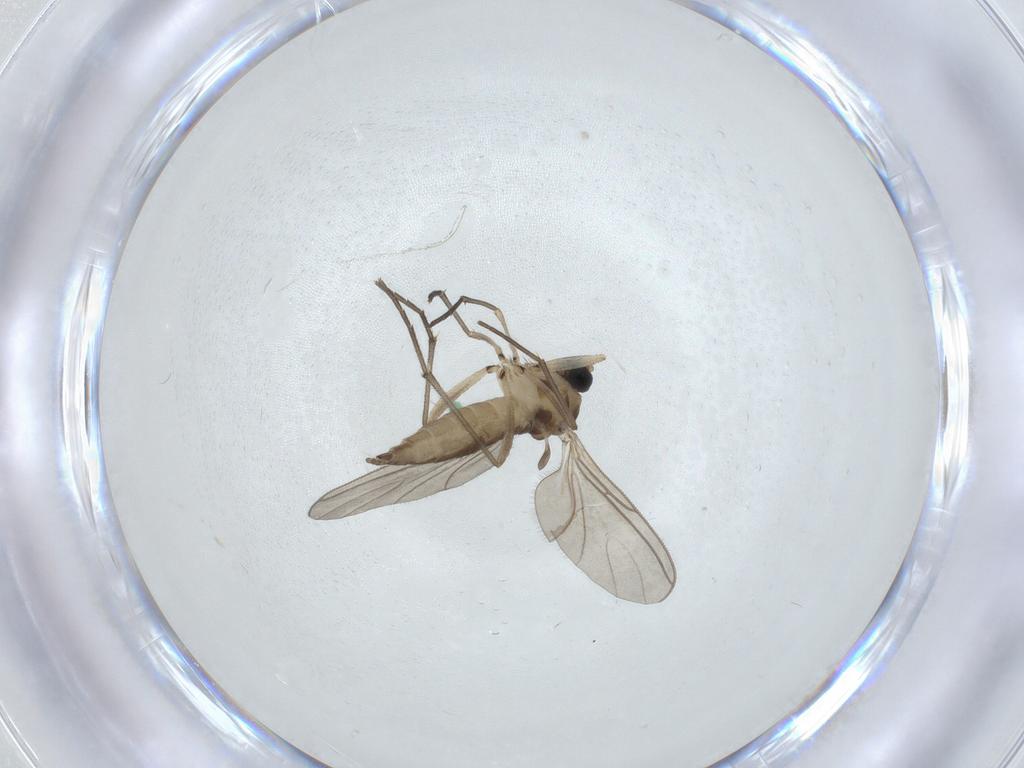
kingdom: Animalia
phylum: Arthropoda
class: Insecta
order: Diptera
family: Sciaridae
